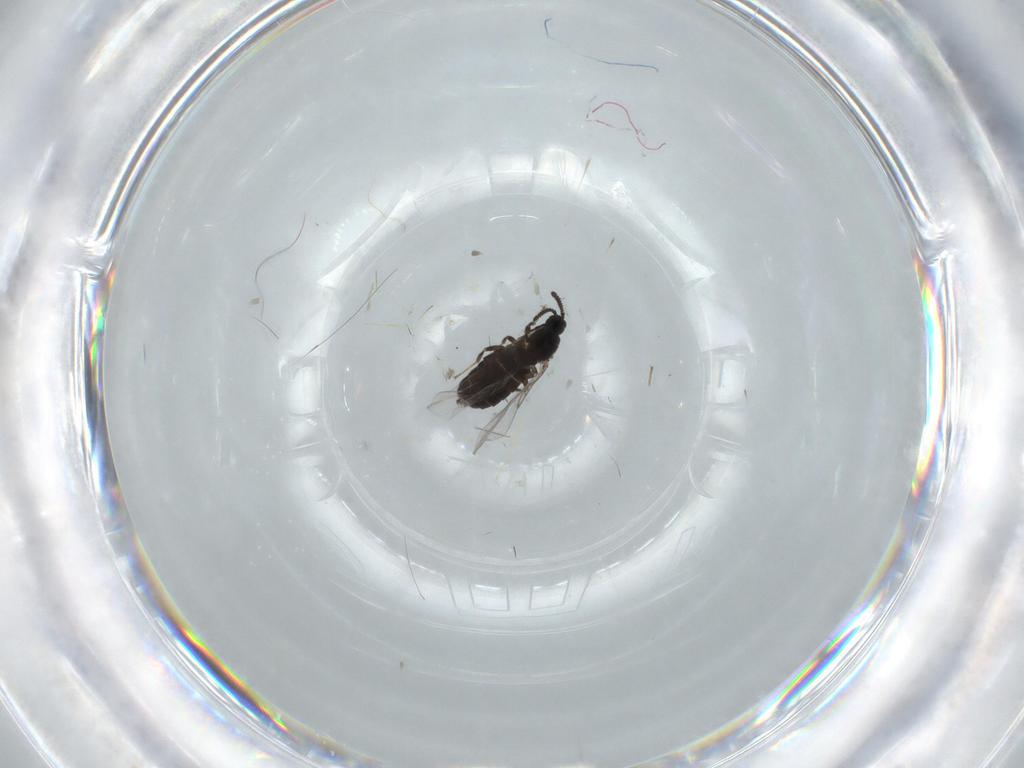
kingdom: Animalia
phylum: Arthropoda
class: Insecta
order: Diptera
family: Scatopsidae
